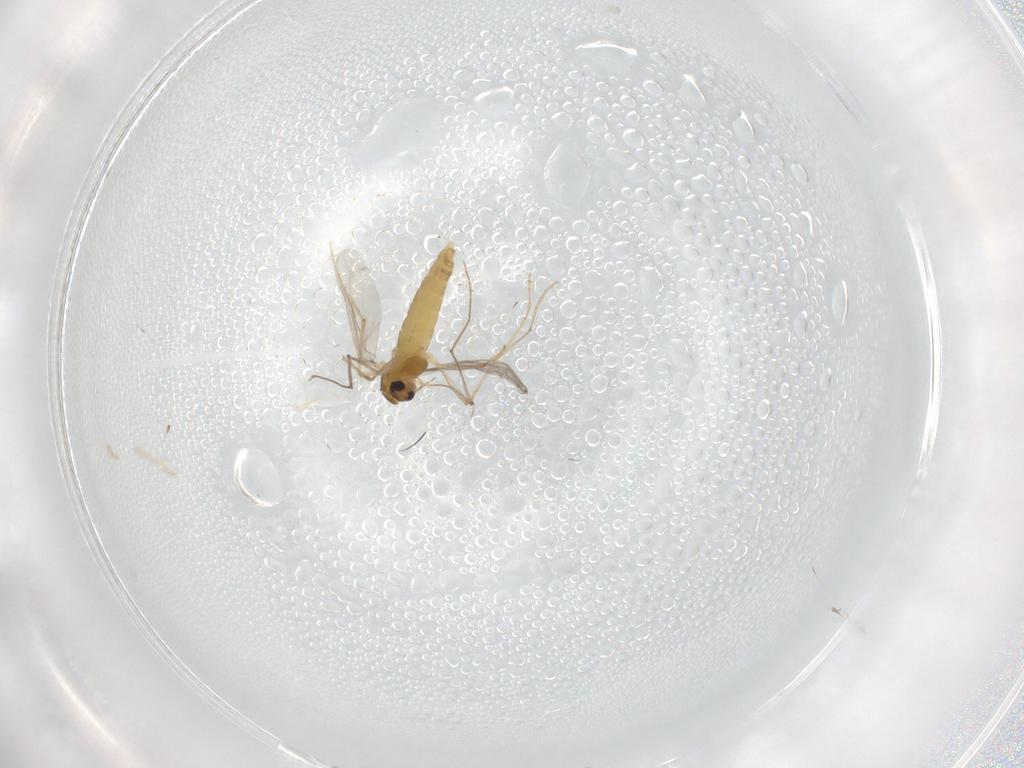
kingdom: Animalia
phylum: Arthropoda
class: Insecta
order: Diptera
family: Chironomidae
